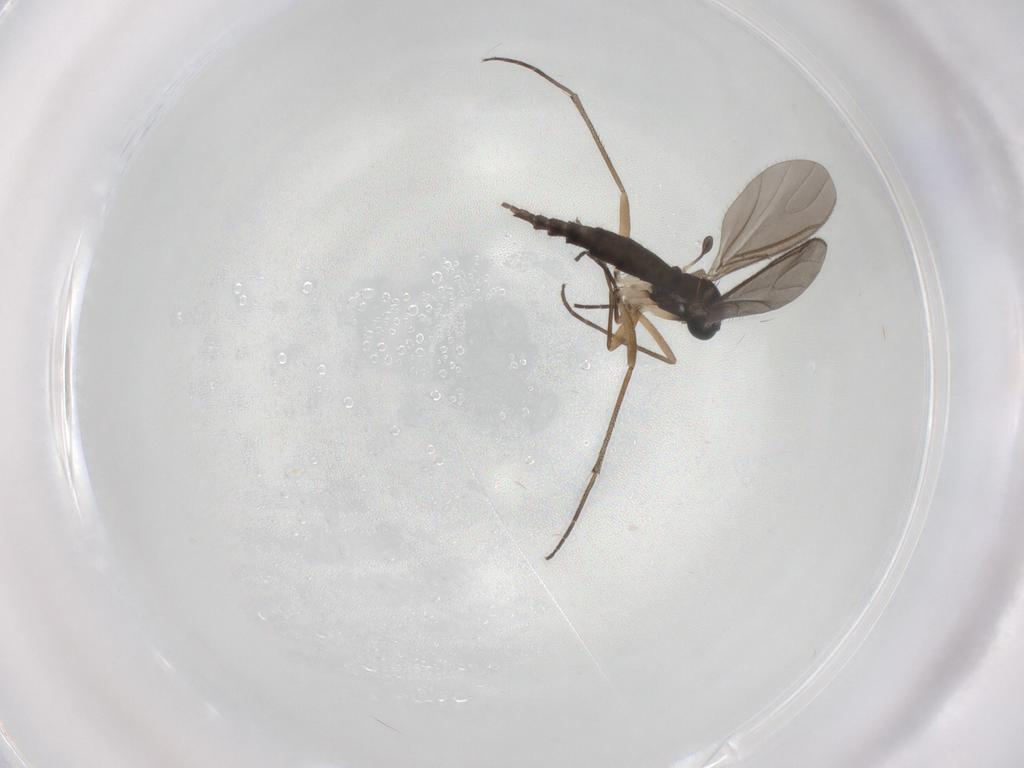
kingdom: Animalia
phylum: Arthropoda
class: Insecta
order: Diptera
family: Sciaridae
